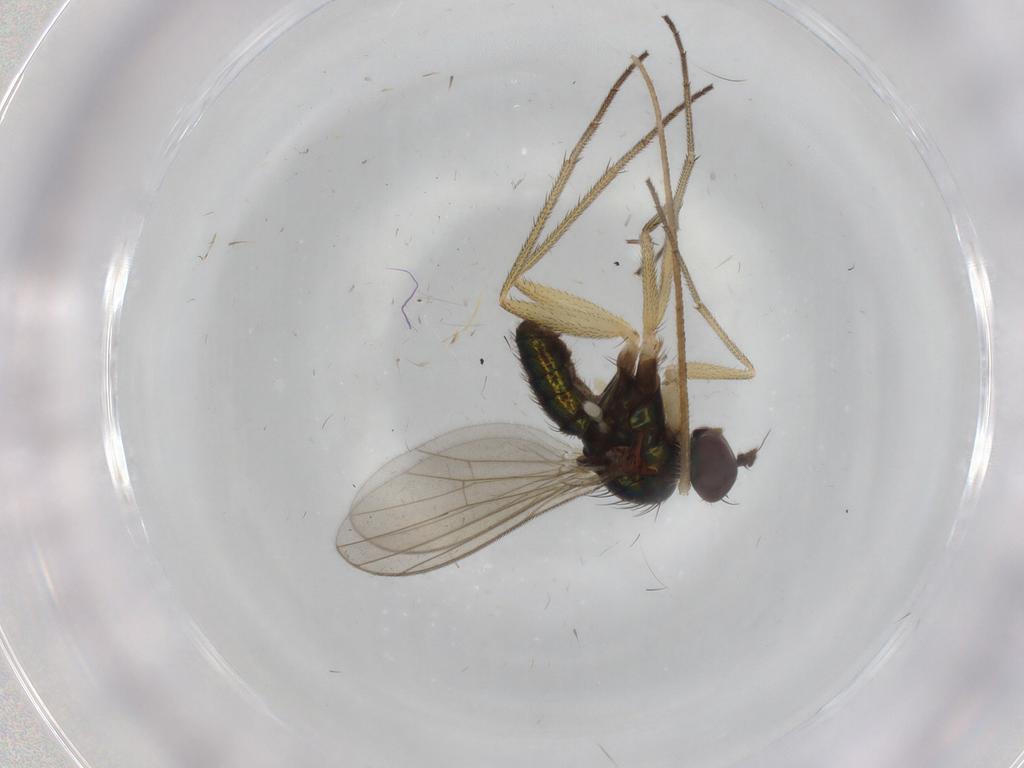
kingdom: Animalia
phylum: Arthropoda
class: Insecta
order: Diptera
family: Dolichopodidae
